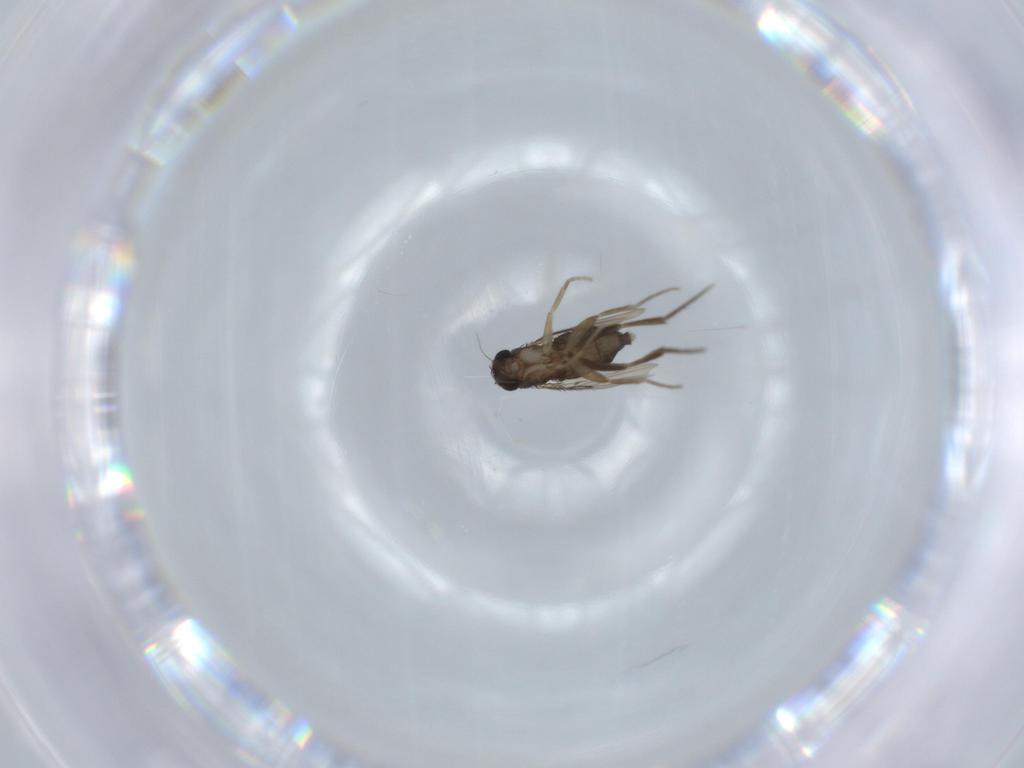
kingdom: Animalia
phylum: Arthropoda
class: Insecta
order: Diptera
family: Phoridae
